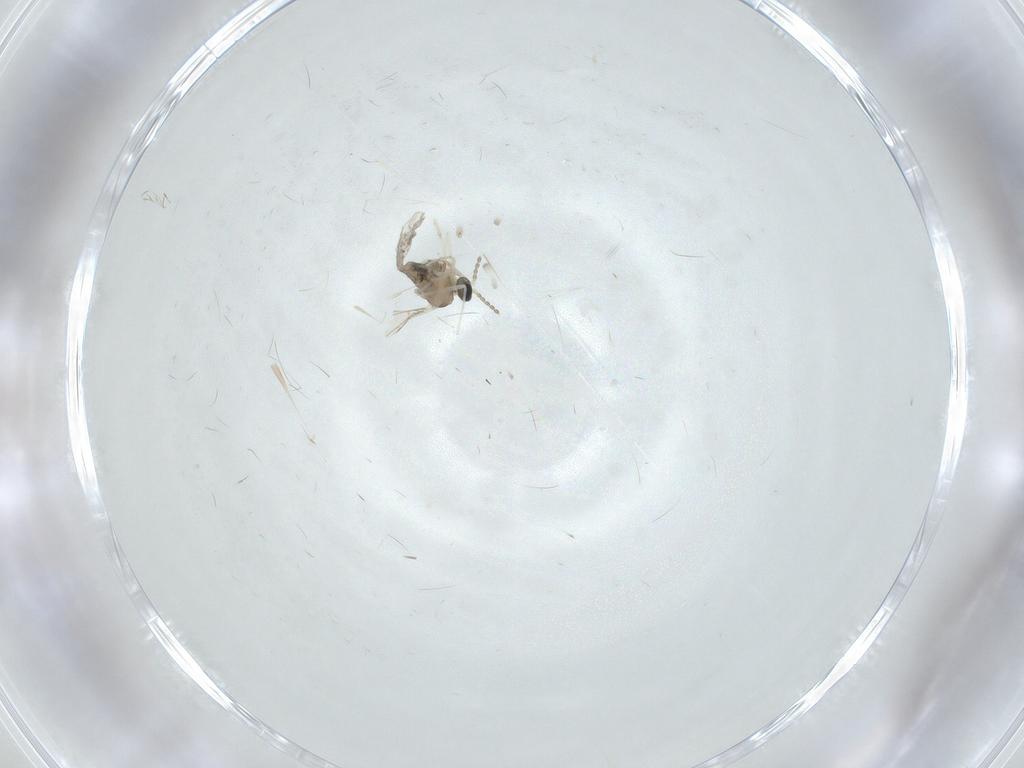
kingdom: Animalia
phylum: Arthropoda
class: Insecta
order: Diptera
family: Cecidomyiidae
